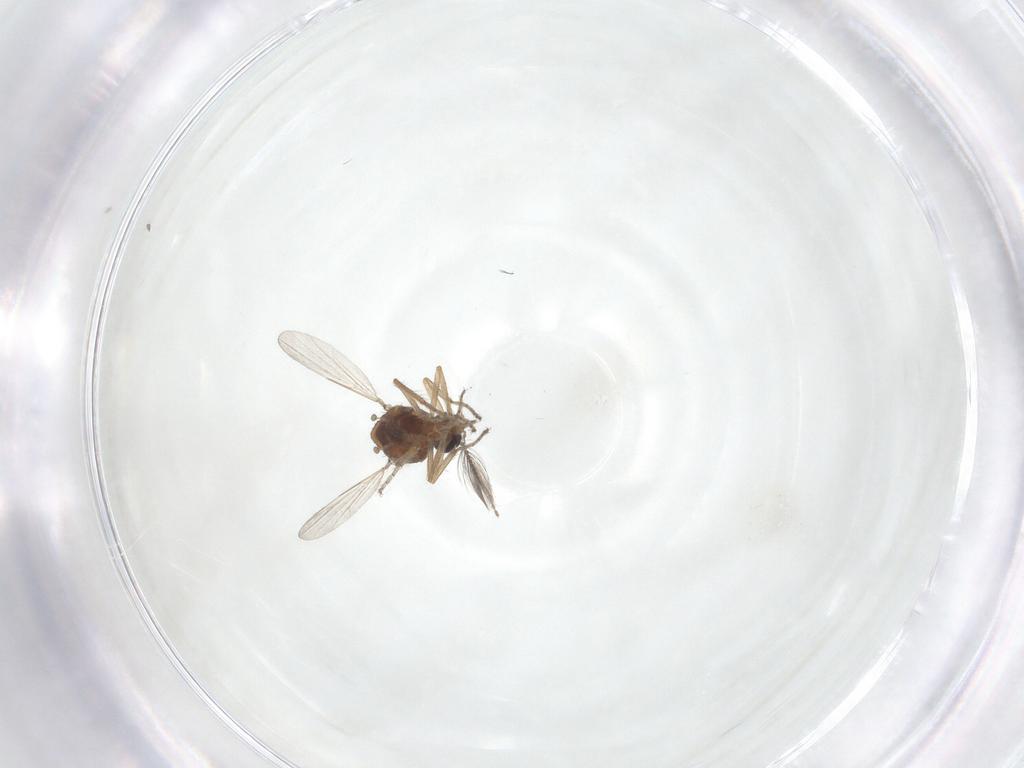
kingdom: Animalia
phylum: Arthropoda
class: Insecta
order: Diptera
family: Ceratopogonidae
